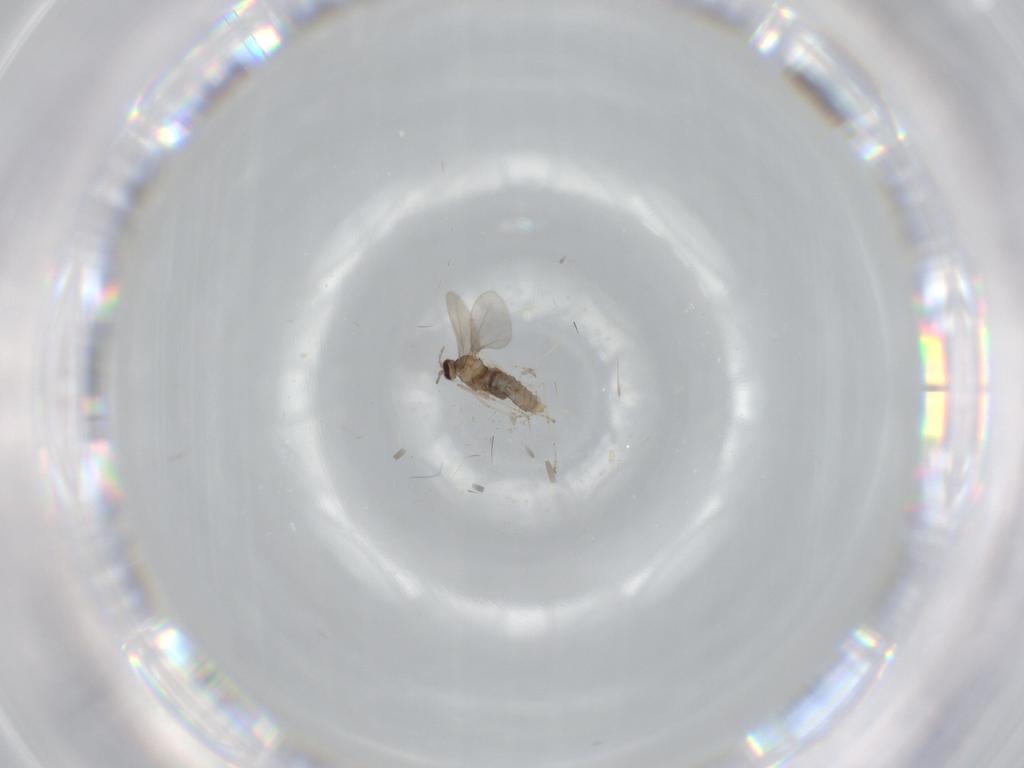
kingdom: Animalia
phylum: Arthropoda
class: Insecta
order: Diptera
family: Cecidomyiidae
